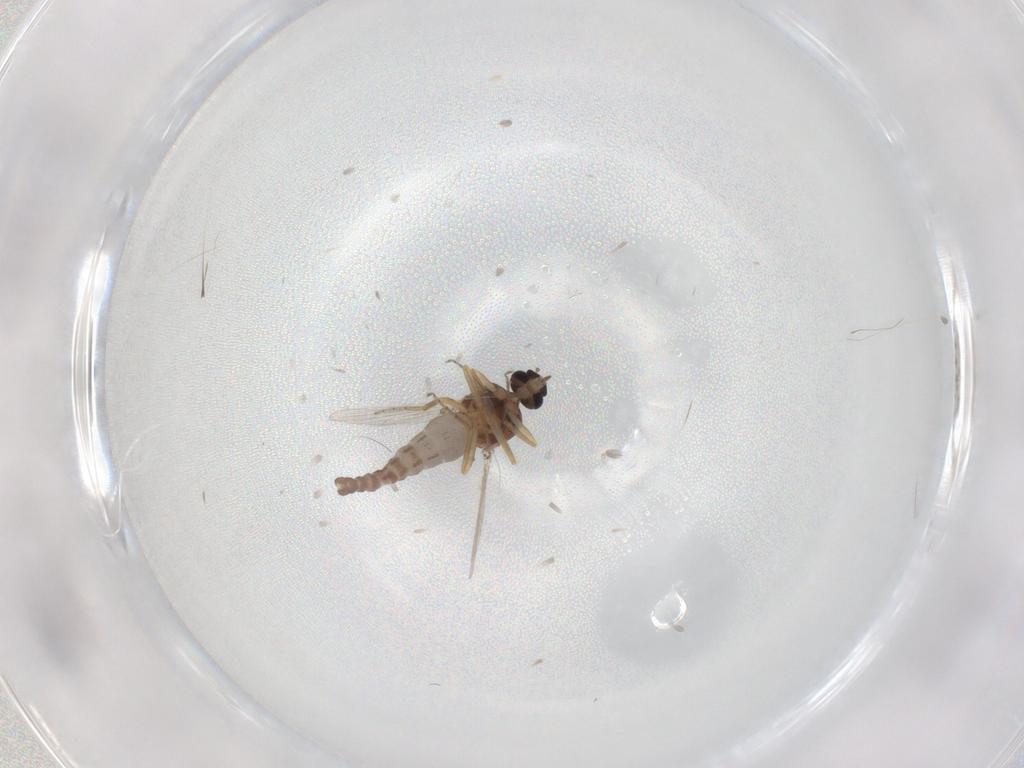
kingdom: Animalia
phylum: Arthropoda
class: Insecta
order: Diptera
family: Ceratopogonidae
